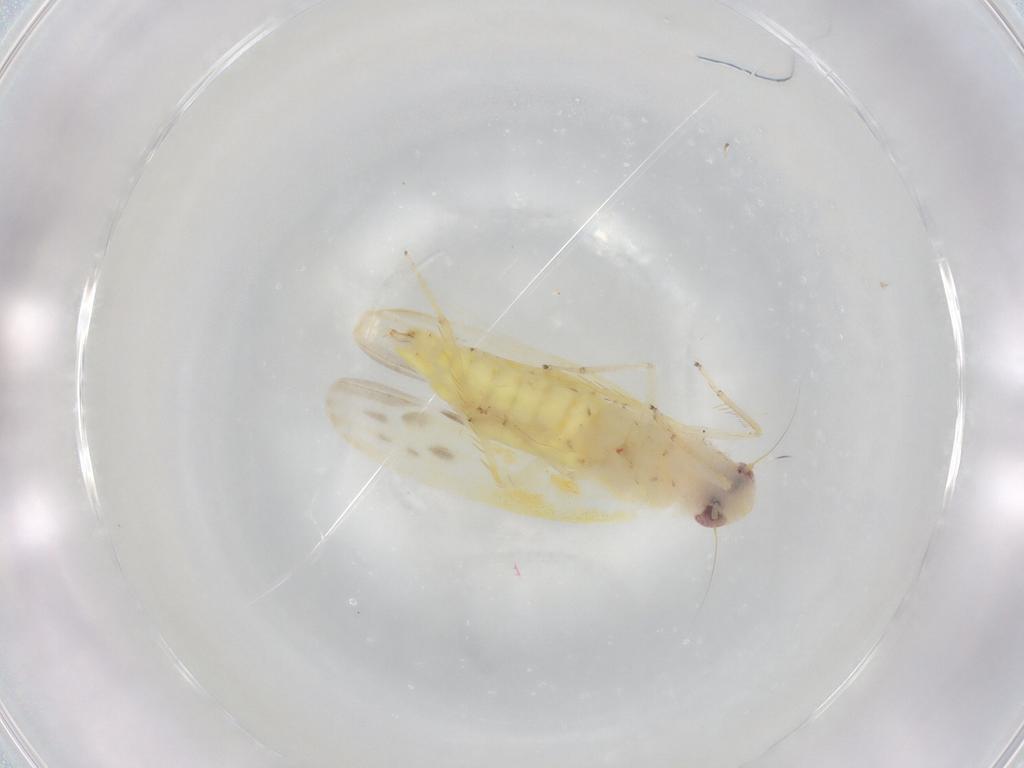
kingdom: Animalia
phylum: Arthropoda
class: Insecta
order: Hemiptera
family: Cicadellidae
